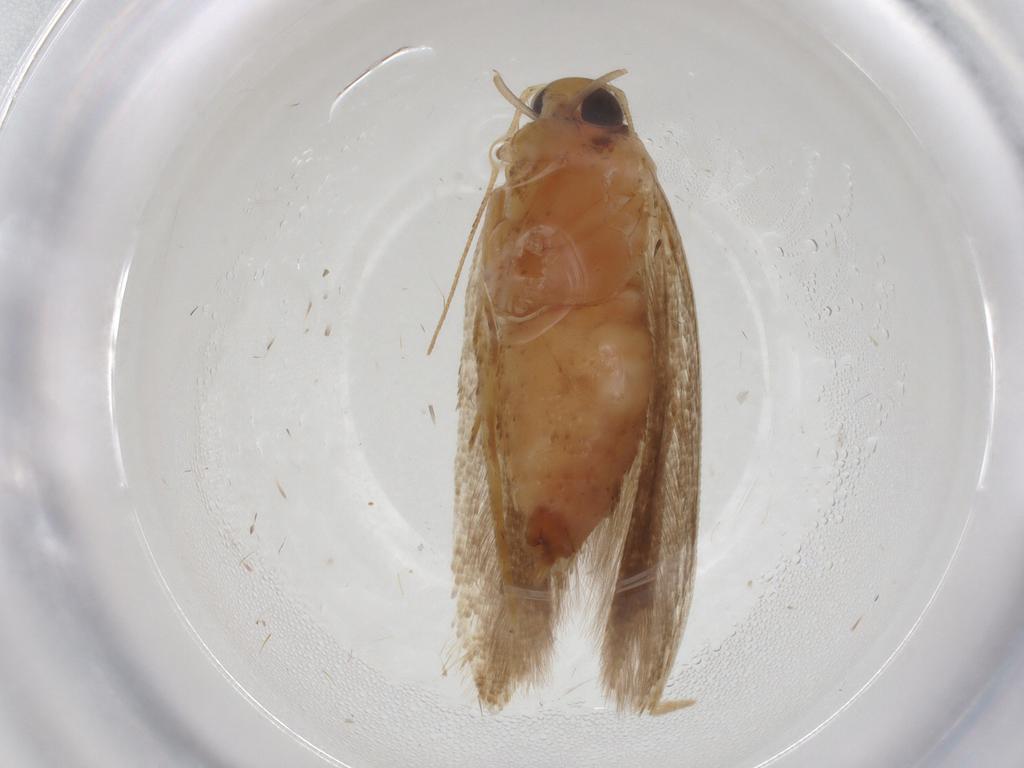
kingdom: Animalia
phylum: Arthropoda
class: Insecta
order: Lepidoptera
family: Gelechiidae
